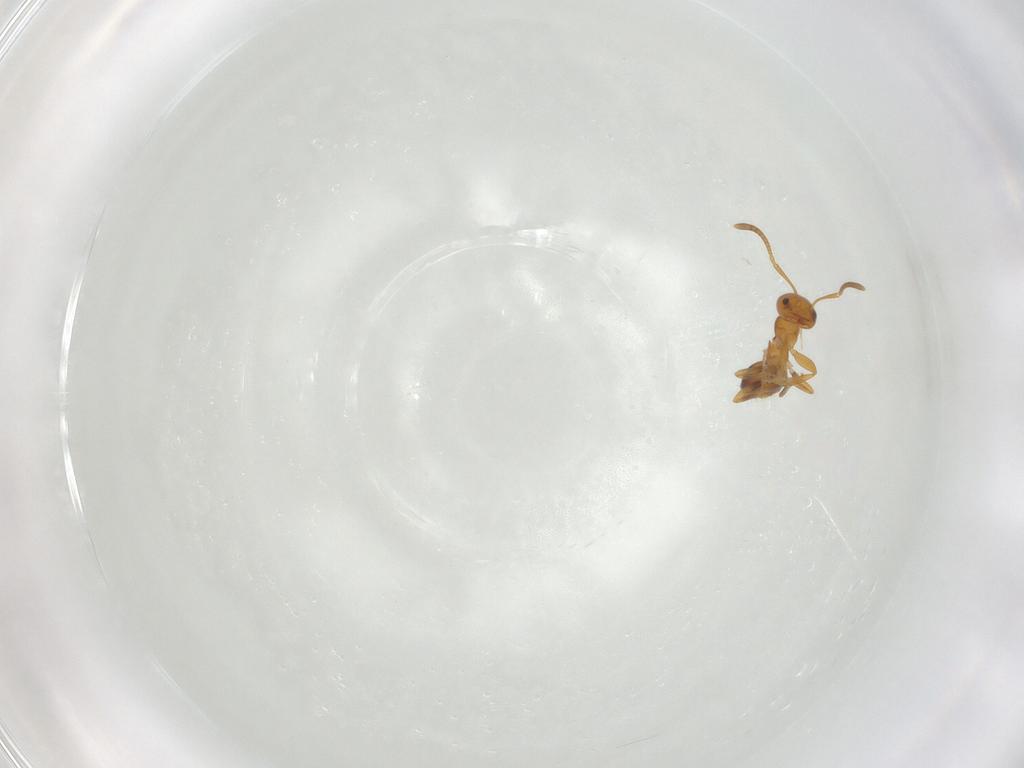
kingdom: Animalia
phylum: Arthropoda
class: Insecta
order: Hymenoptera
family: Formicidae
